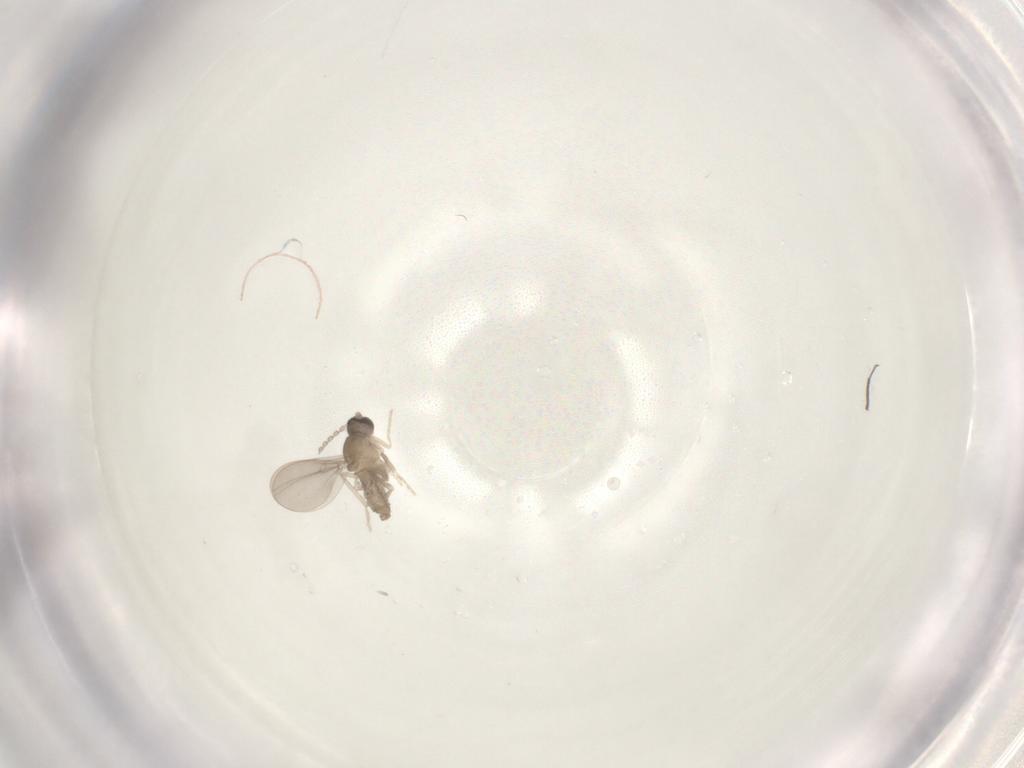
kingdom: Animalia
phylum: Arthropoda
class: Insecta
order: Diptera
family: Cecidomyiidae
